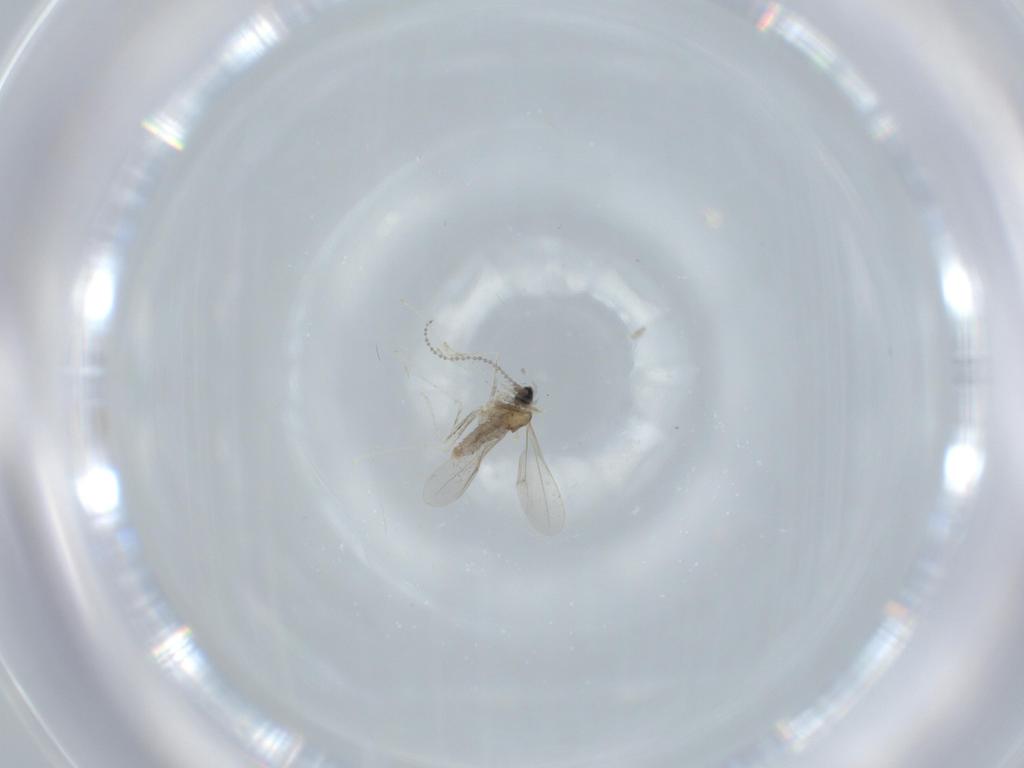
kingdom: Animalia
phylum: Arthropoda
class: Insecta
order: Diptera
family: Cecidomyiidae
